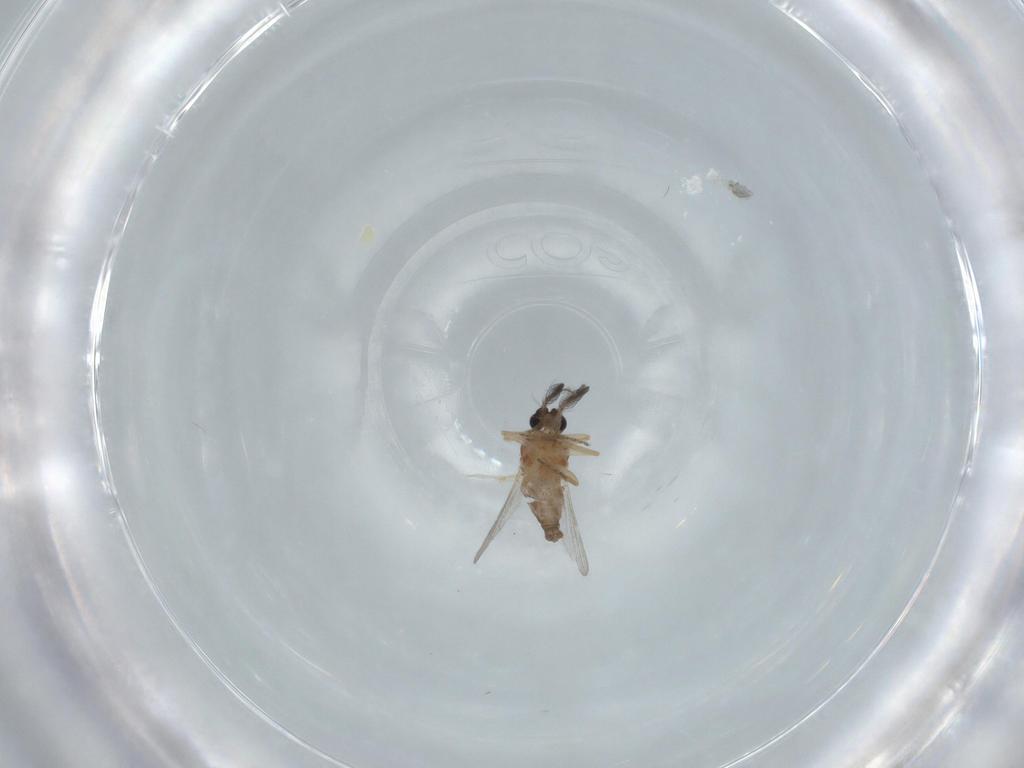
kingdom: Animalia
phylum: Arthropoda
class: Insecta
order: Diptera
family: Ceratopogonidae
